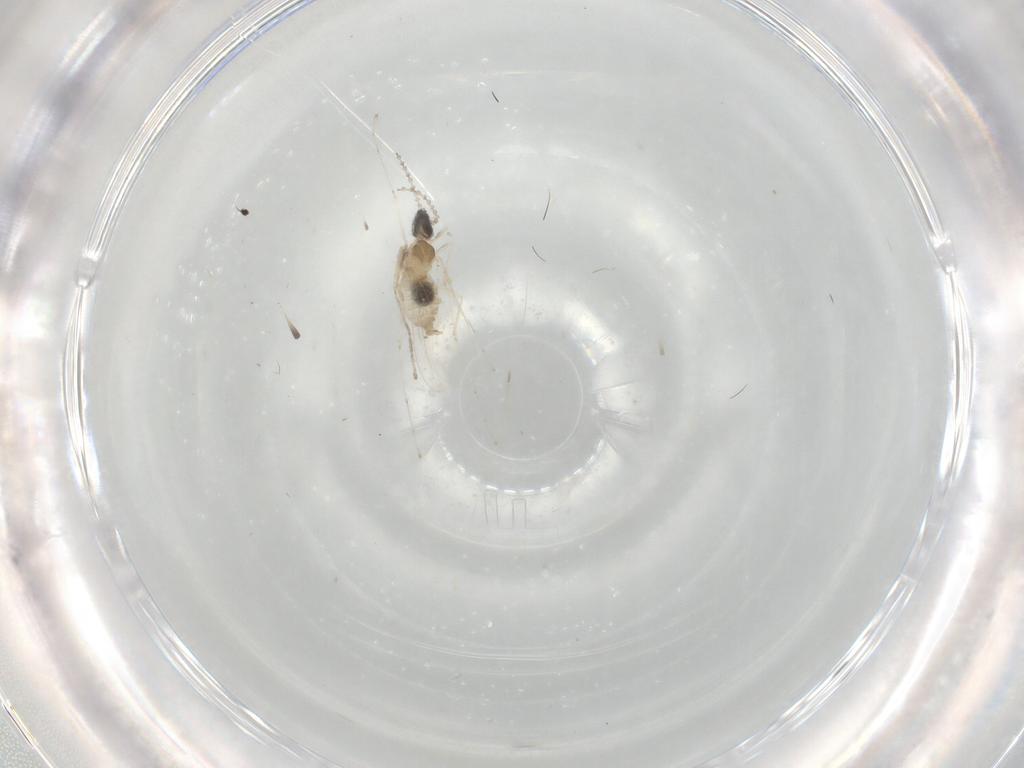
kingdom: Animalia
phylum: Arthropoda
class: Insecta
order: Diptera
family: Cecidomyiidae
